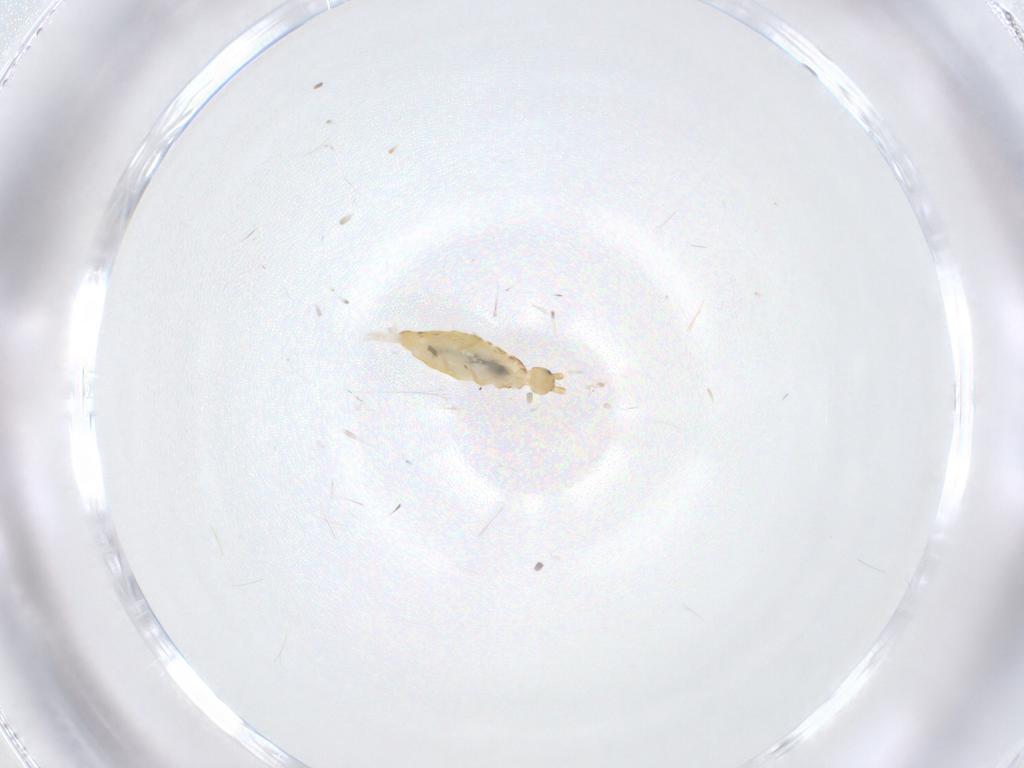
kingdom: Animalia
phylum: Arthropoda
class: Collembola
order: Entomobryomorpha
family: Entomobryidae
